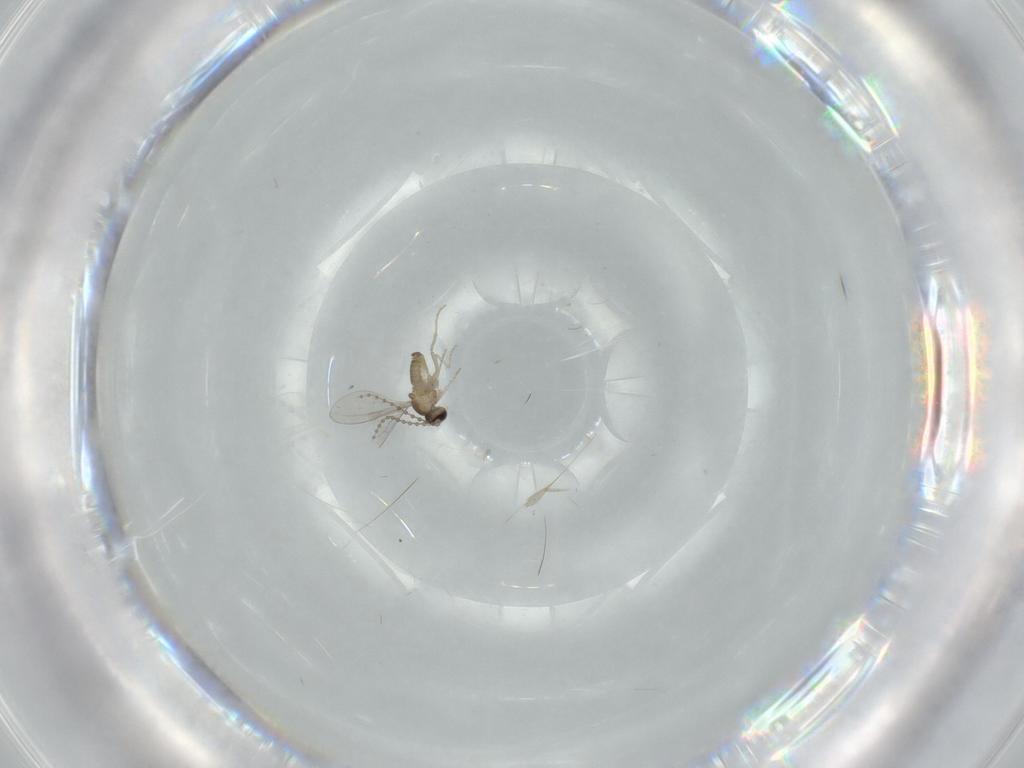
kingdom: Animalia
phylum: Arthropoda
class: Insecta
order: Diptera
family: Cecidomyiidae
